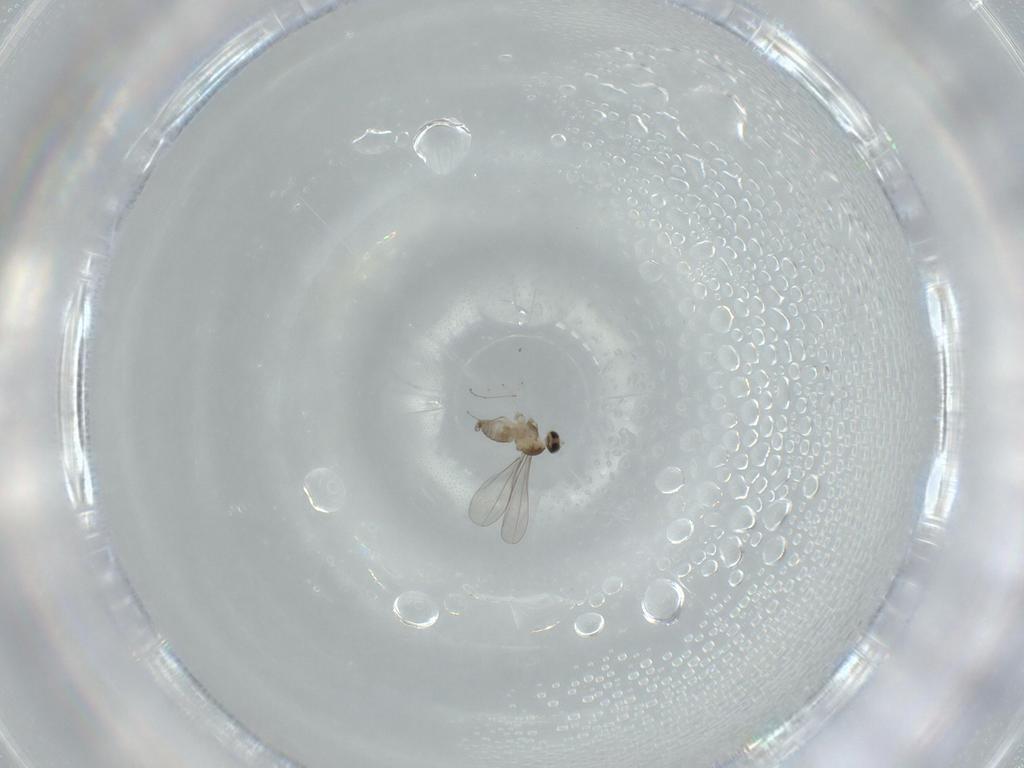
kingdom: Animalia
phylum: Arthropoda
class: Insecta
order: Diptera
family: Cecidomyiidae
